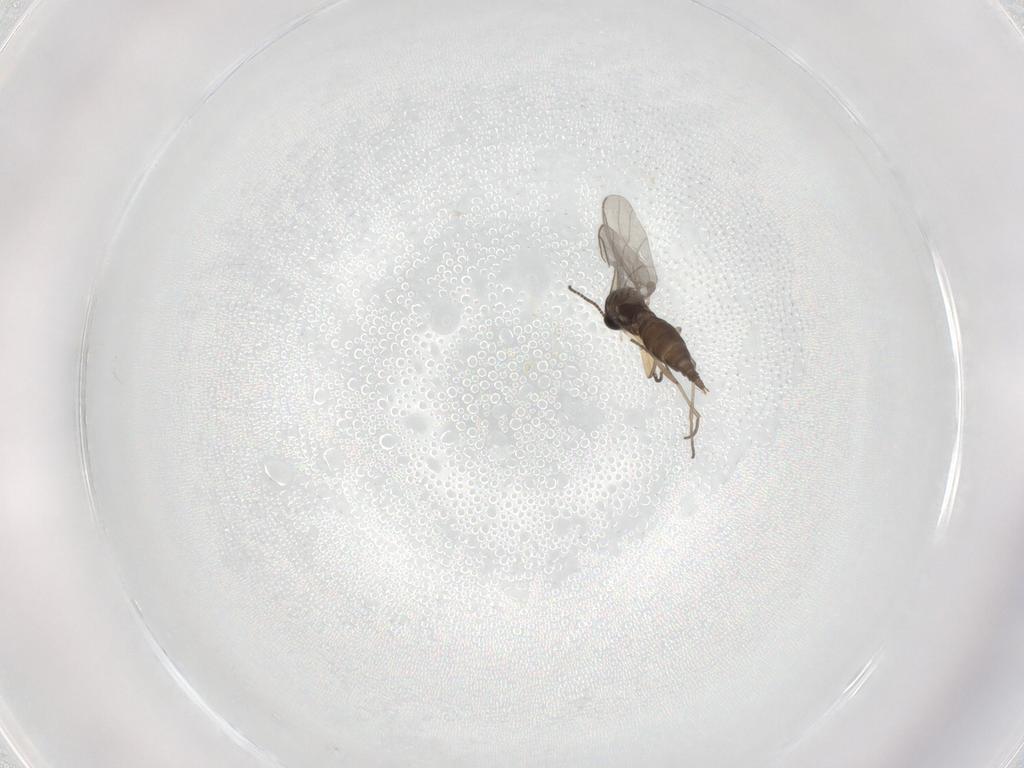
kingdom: Animalia
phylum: Arthropoda
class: Insecta
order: Diptera
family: Sciaridae
